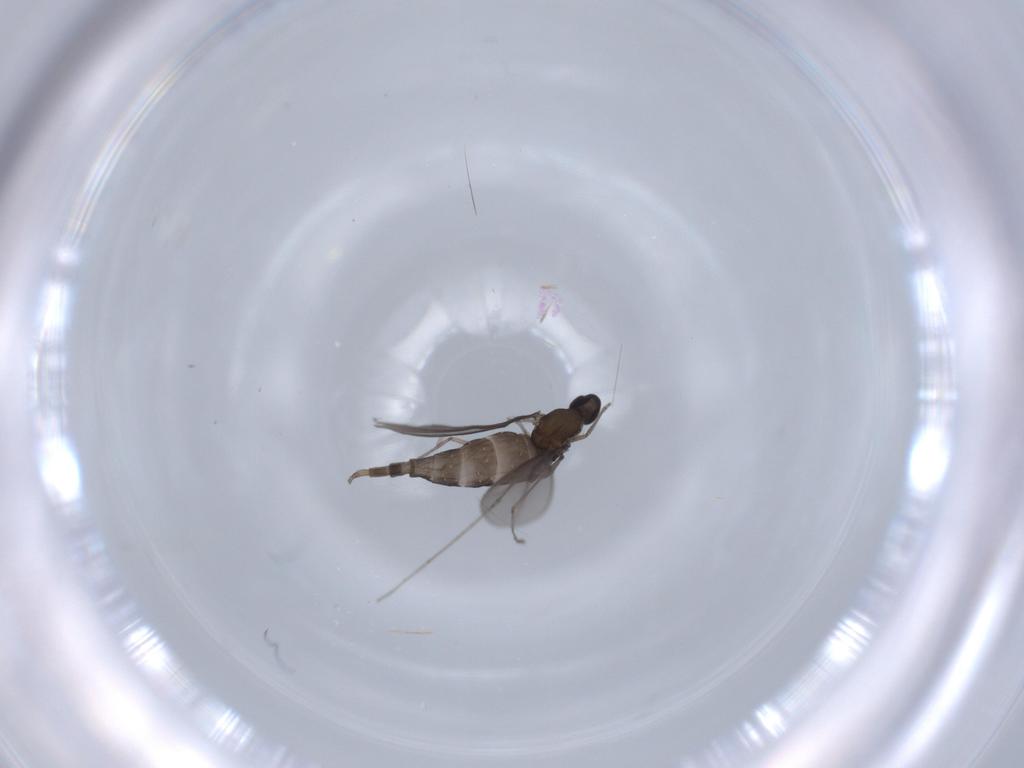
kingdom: Animalia
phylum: Arthropoda
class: Insecta
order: Diptera
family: Cecidomyiidae
